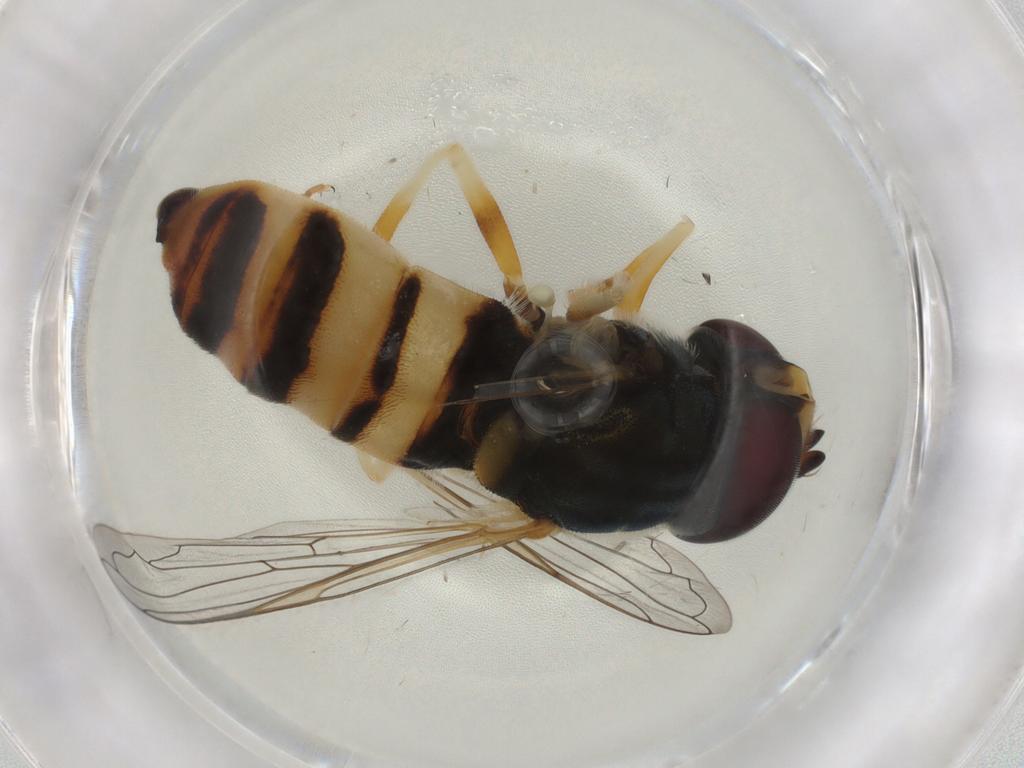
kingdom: Animalia
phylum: Arthropoda
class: Insecta
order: Diptera
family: Syrphidae
